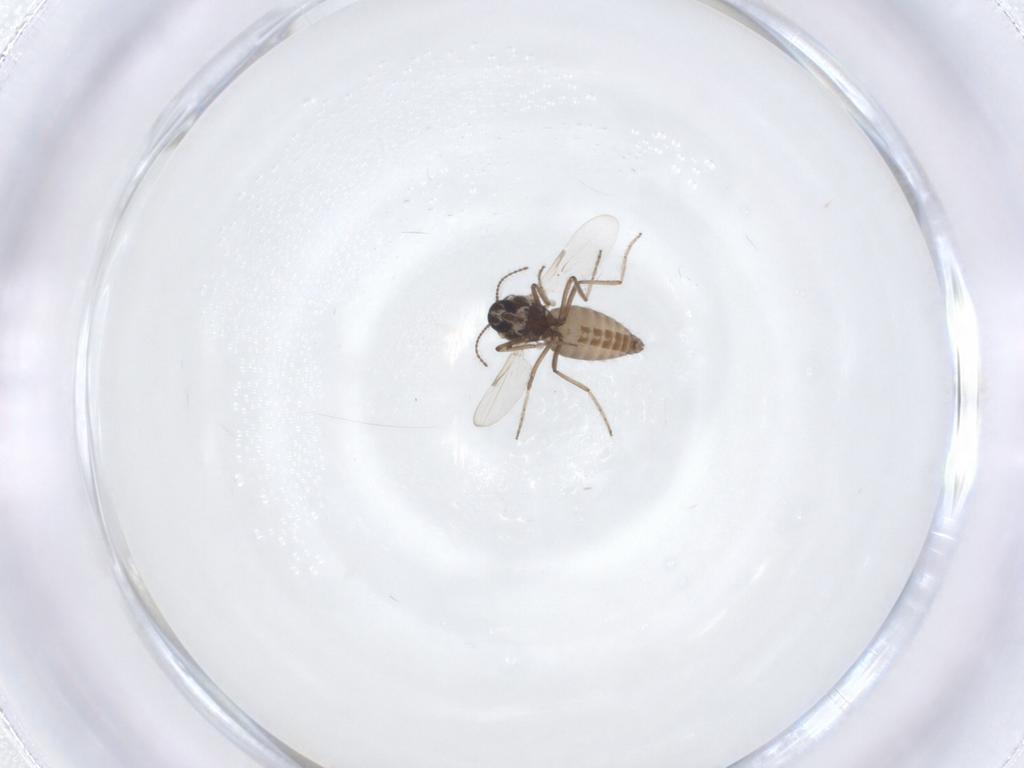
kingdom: Animalia
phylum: Arthropoda
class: Insecta
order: Diptera
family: Ceratopogonidae
